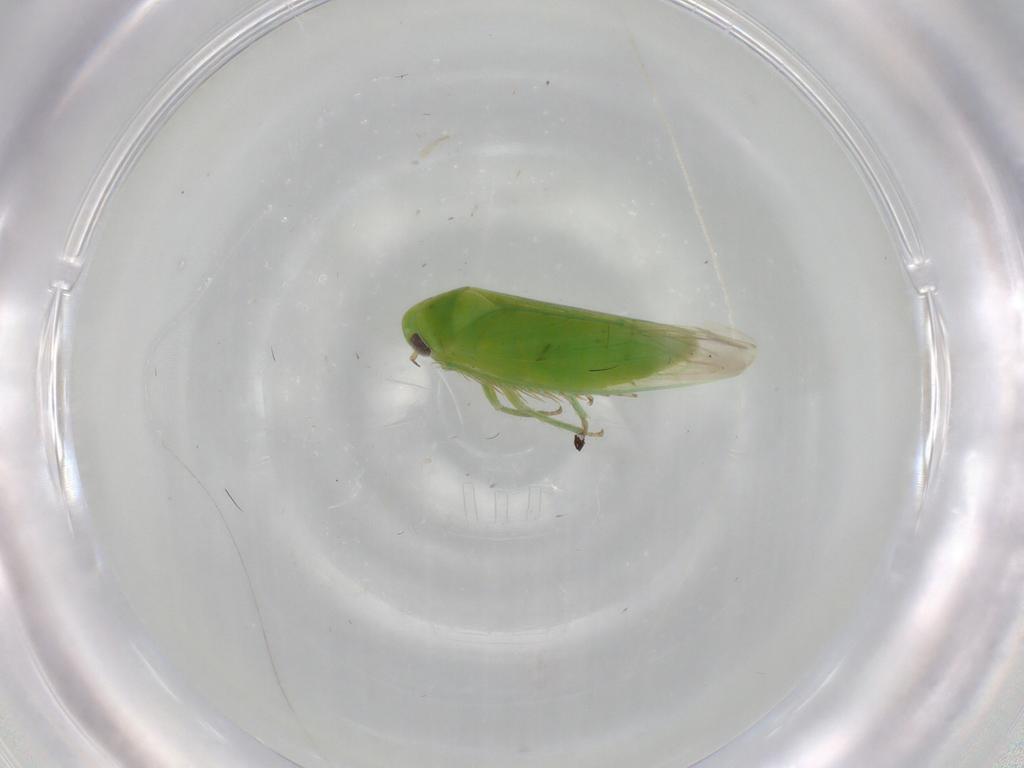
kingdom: Animalia
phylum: Arthropoda
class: Insecta
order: Hemiptera
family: Cicadellidae
